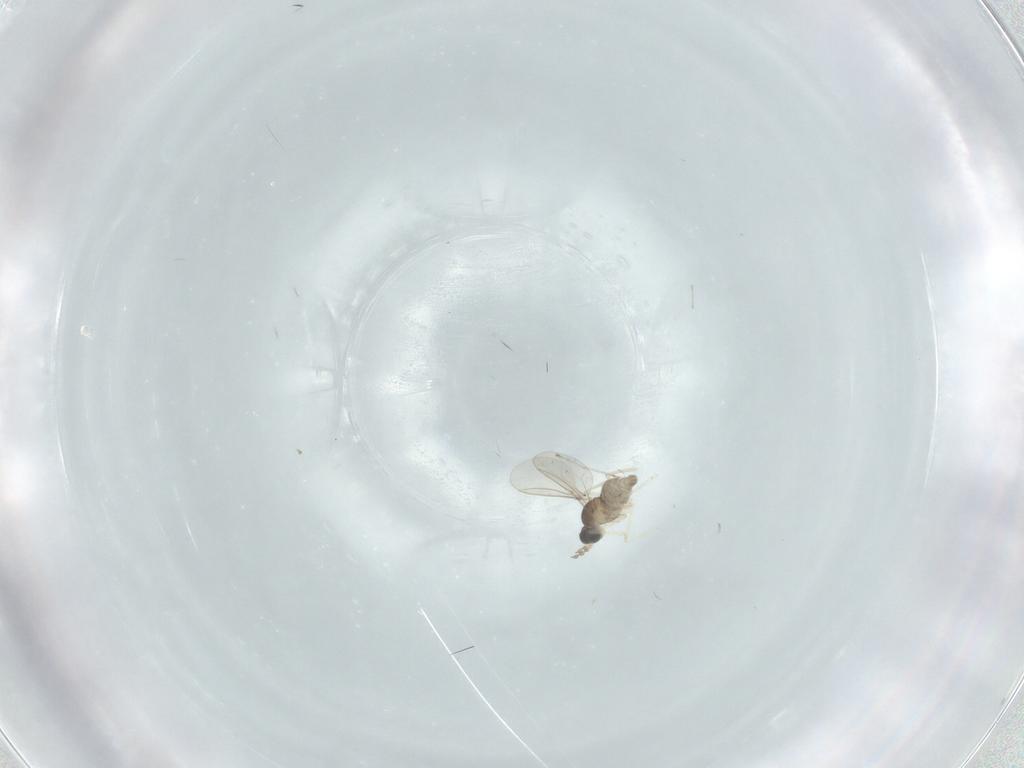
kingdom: Animalia
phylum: Arthropoda
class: Insecta
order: Diptera
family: Cecidomyiidae
